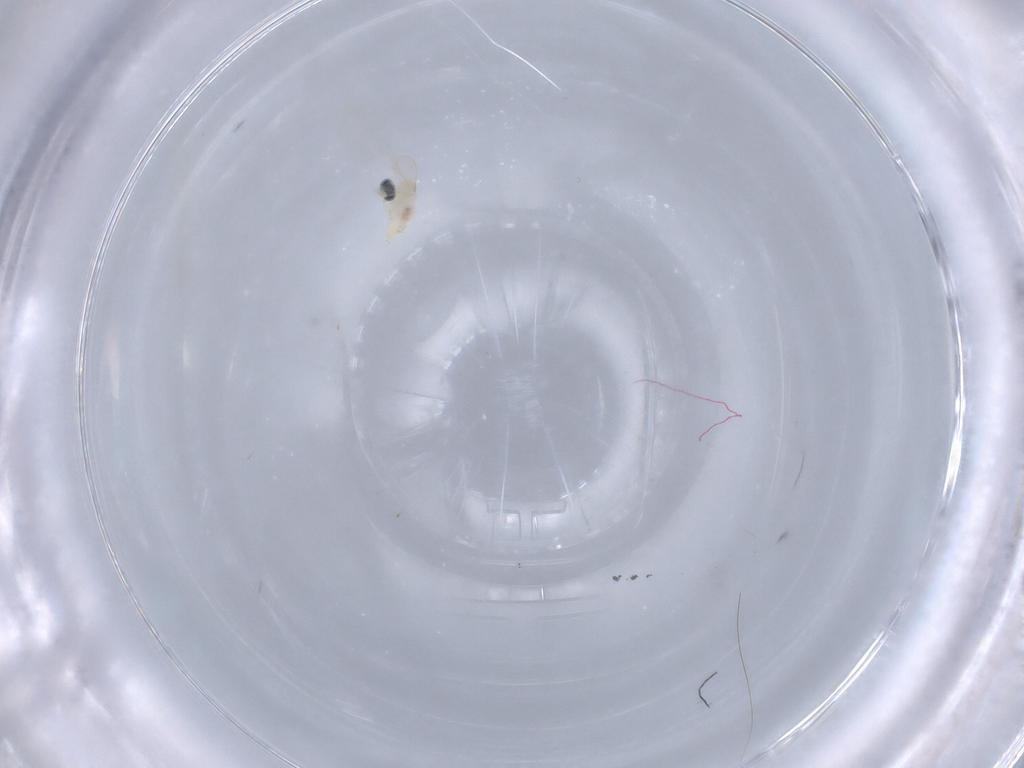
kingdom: Animalia
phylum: Arthropoda
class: Insecta
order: Diptera
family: Cecidomyiidae
